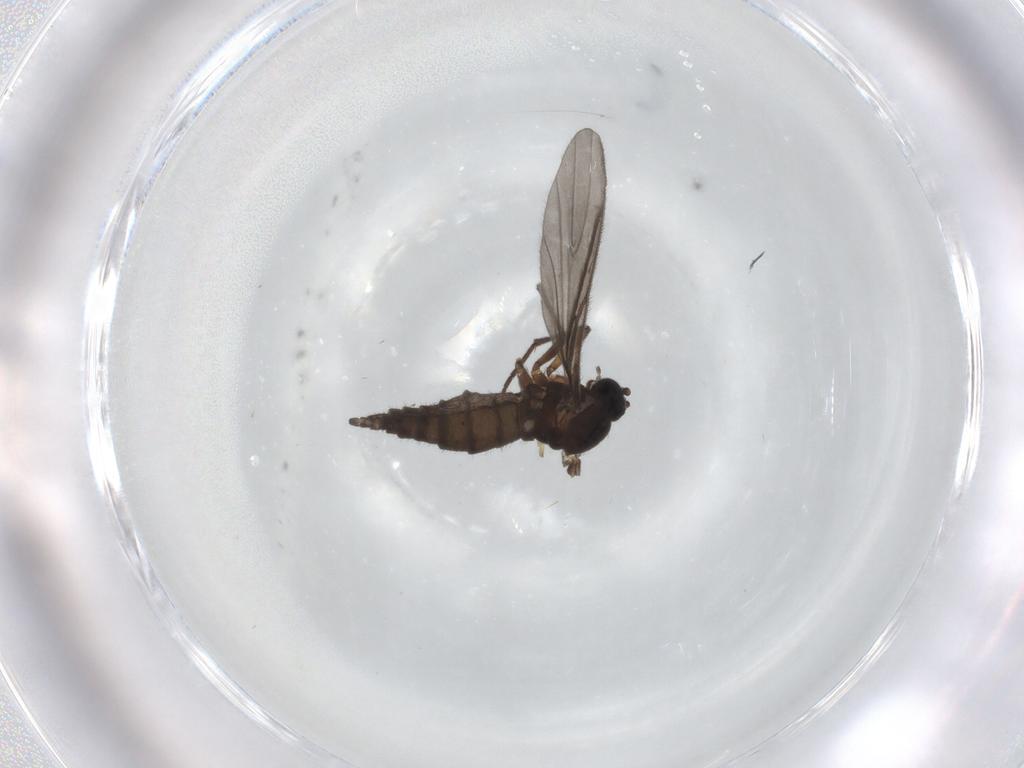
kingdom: Animalia
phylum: Arthropoda
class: Insecta
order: Diptera
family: Sciaridae
